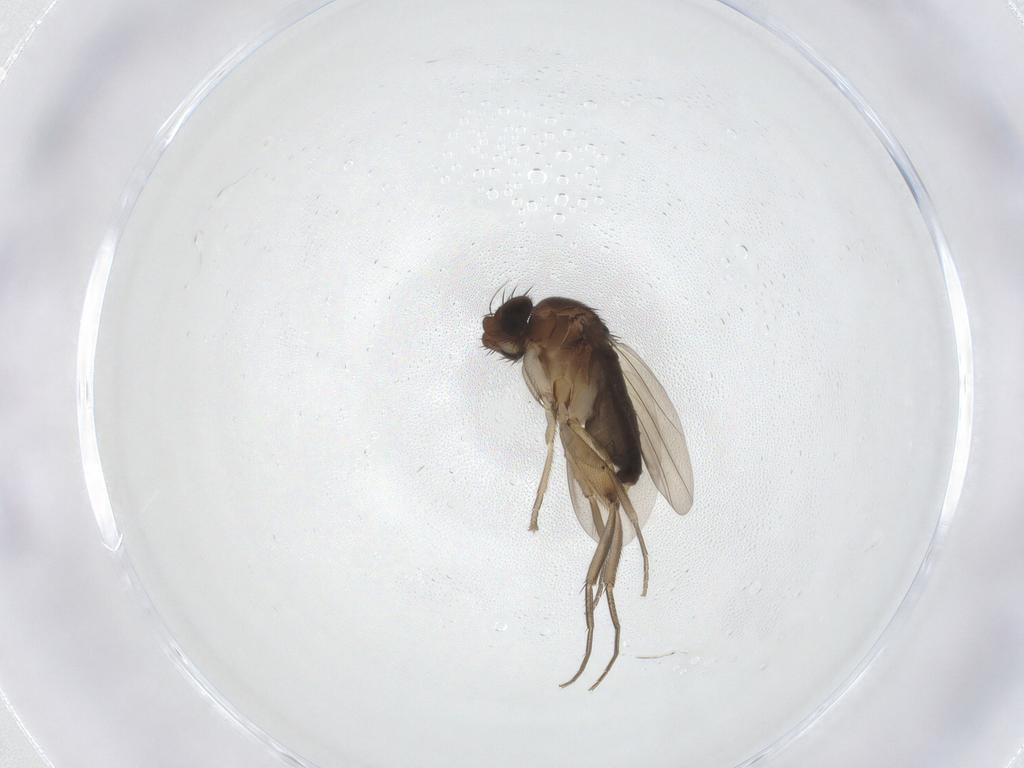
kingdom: Animalia
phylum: Arthropoda
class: Insecta
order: Diptera
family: Phoridae
